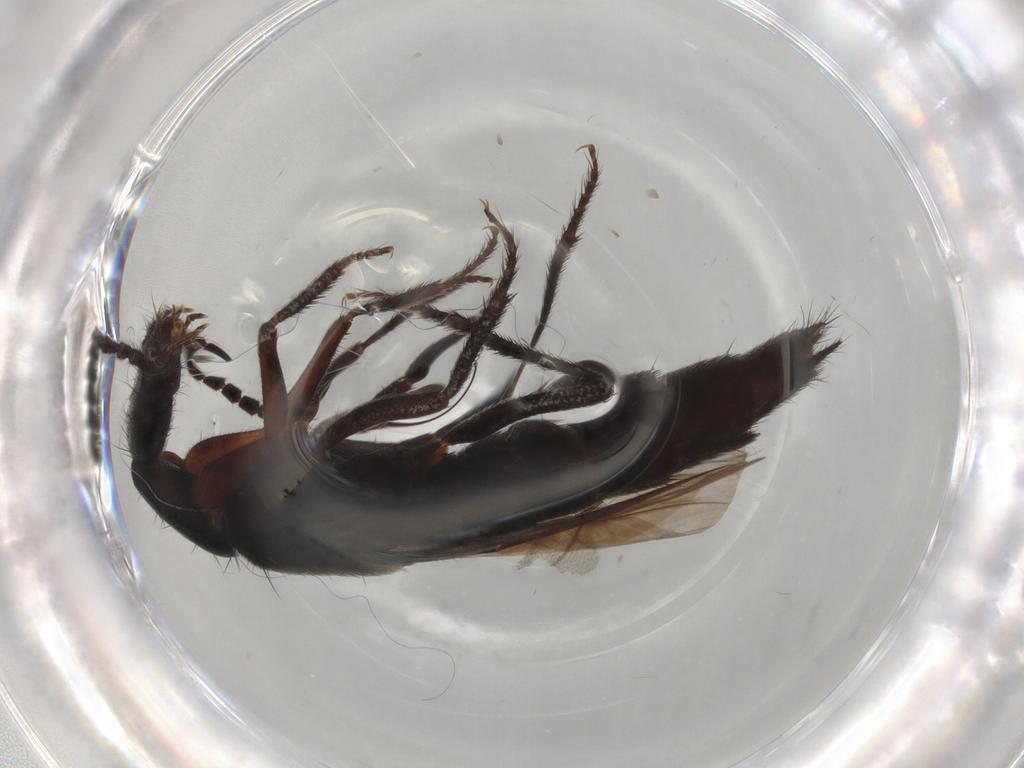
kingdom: Animalia
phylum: Arthropoda
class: Insecta
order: Coleoptera
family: Staphylinidae
